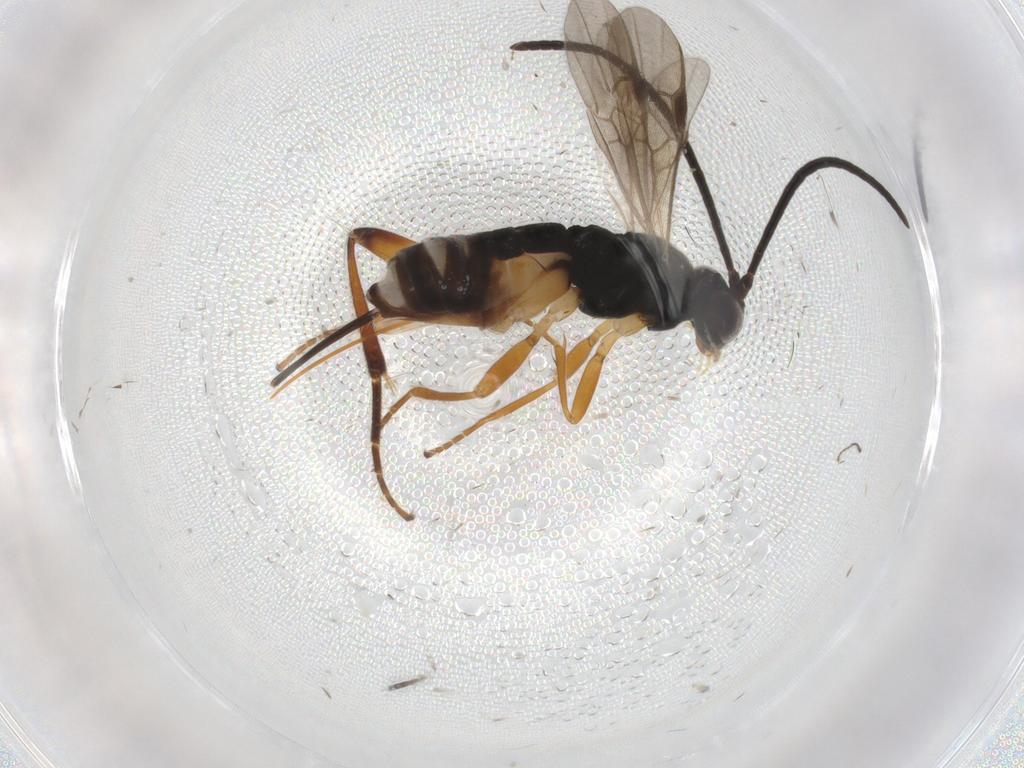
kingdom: Animalia
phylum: Arthropoda
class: Insecta
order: Hymenoptera
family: Braconidae
